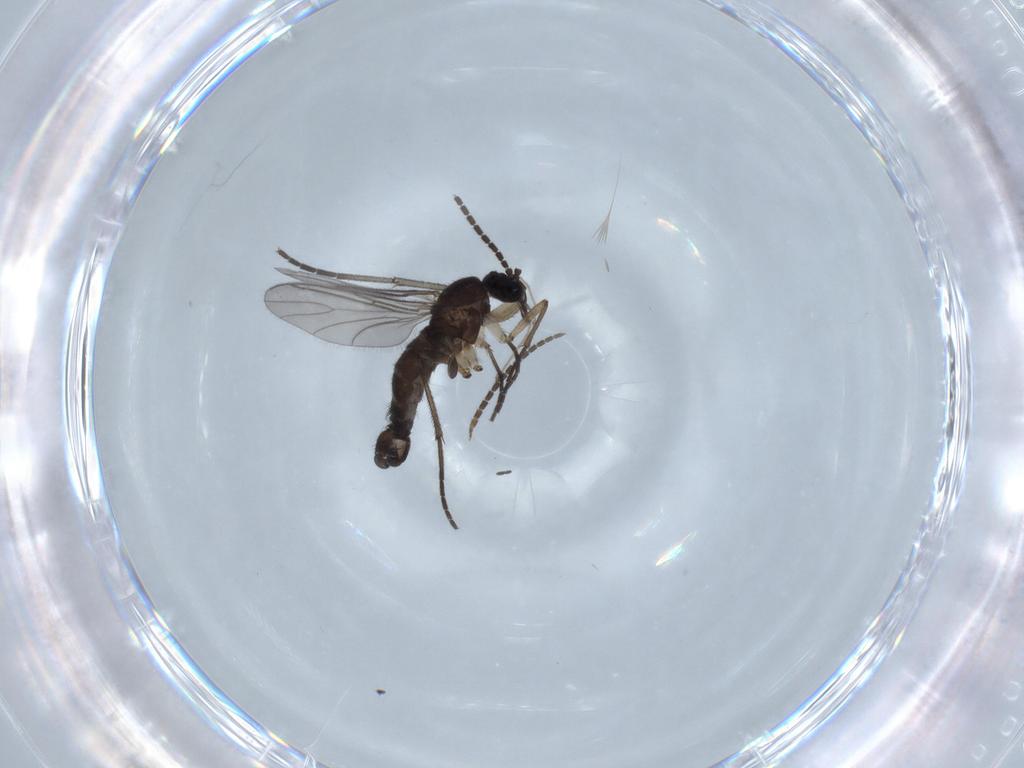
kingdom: Animalia
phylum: Arthropoda
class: Insecta
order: Diptera
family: Sciaridae
